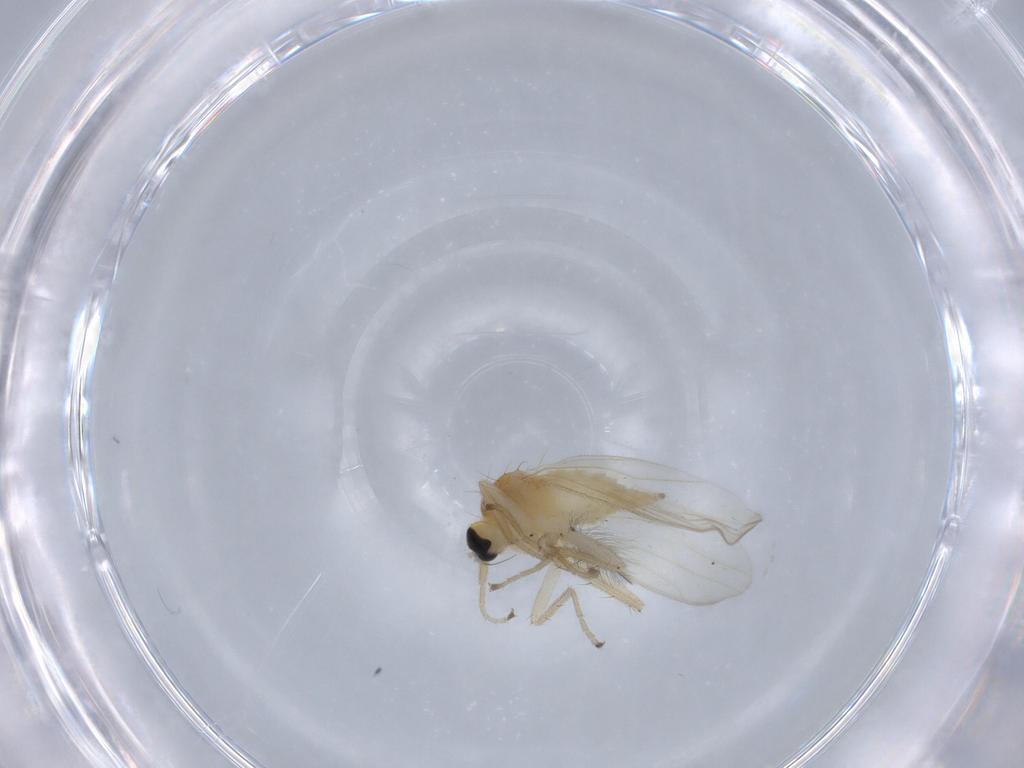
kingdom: Animalia
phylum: Arthropoda
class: Insecta
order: Diptera
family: Hybotidae
